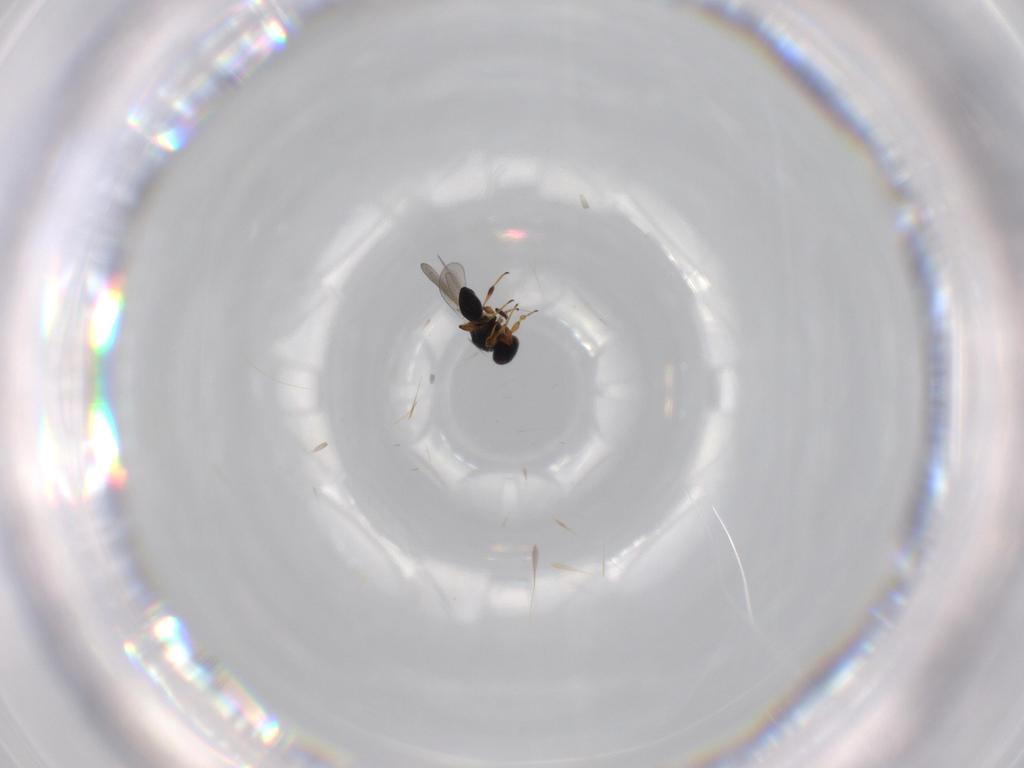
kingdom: Animalia
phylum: Arthropoda
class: Insecta
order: Hymenoptera
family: Platygastridae
